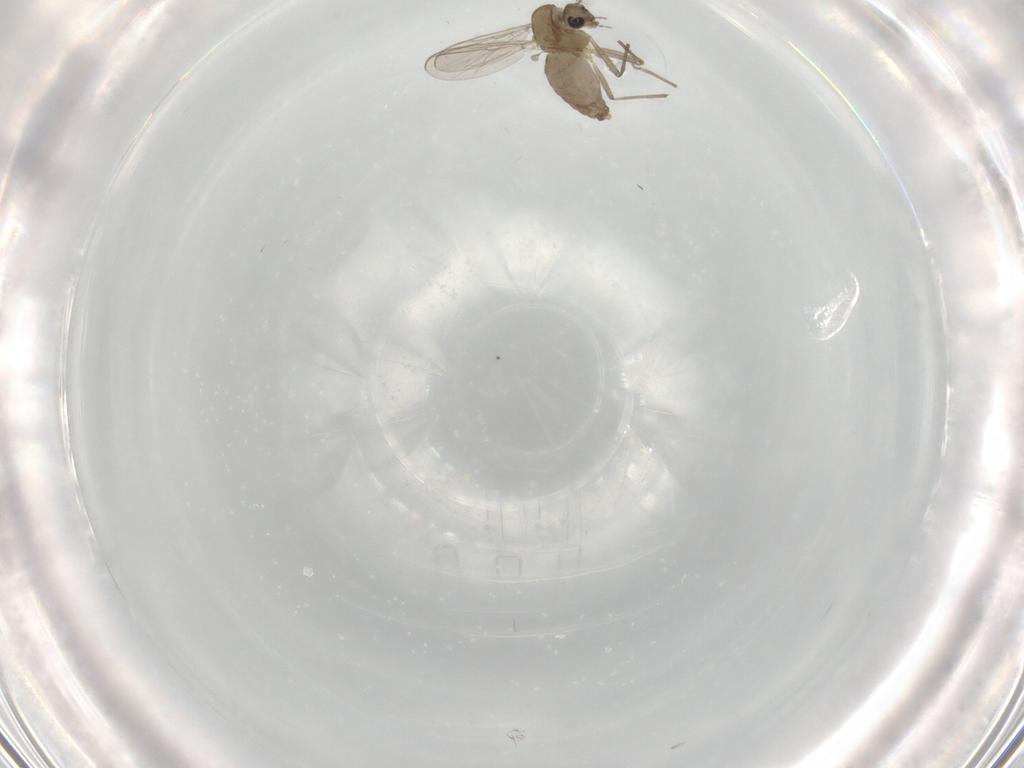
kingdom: Animalia
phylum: Arthropoda
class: Insecta
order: Diptera
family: Chironomidae
